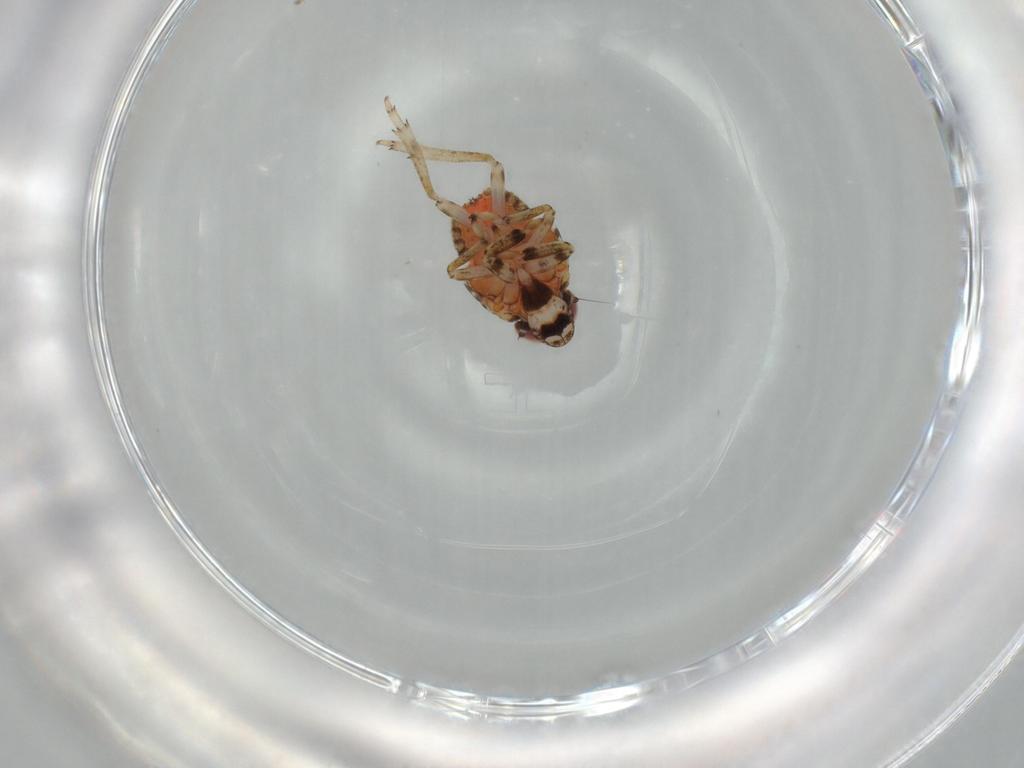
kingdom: Animalia
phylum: Arthropoda
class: Insecta
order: Hemiptera
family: Issidae
